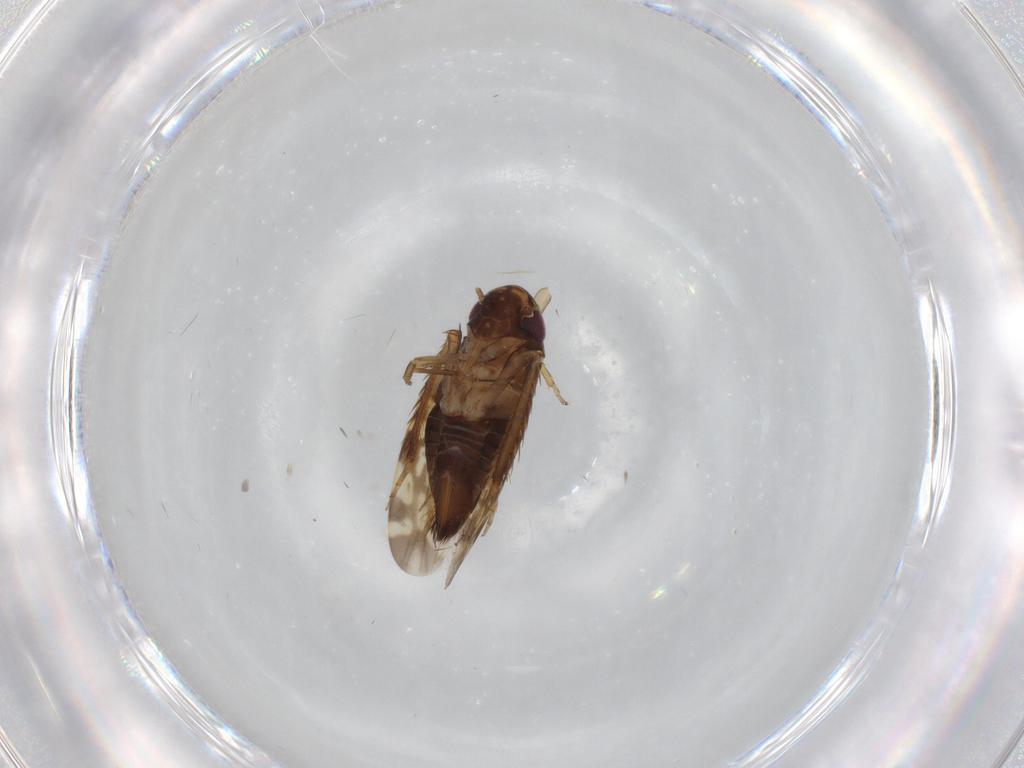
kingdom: Animalia
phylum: Arthropoda
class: Insecta
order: Hemiptera
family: Cicadellidae
